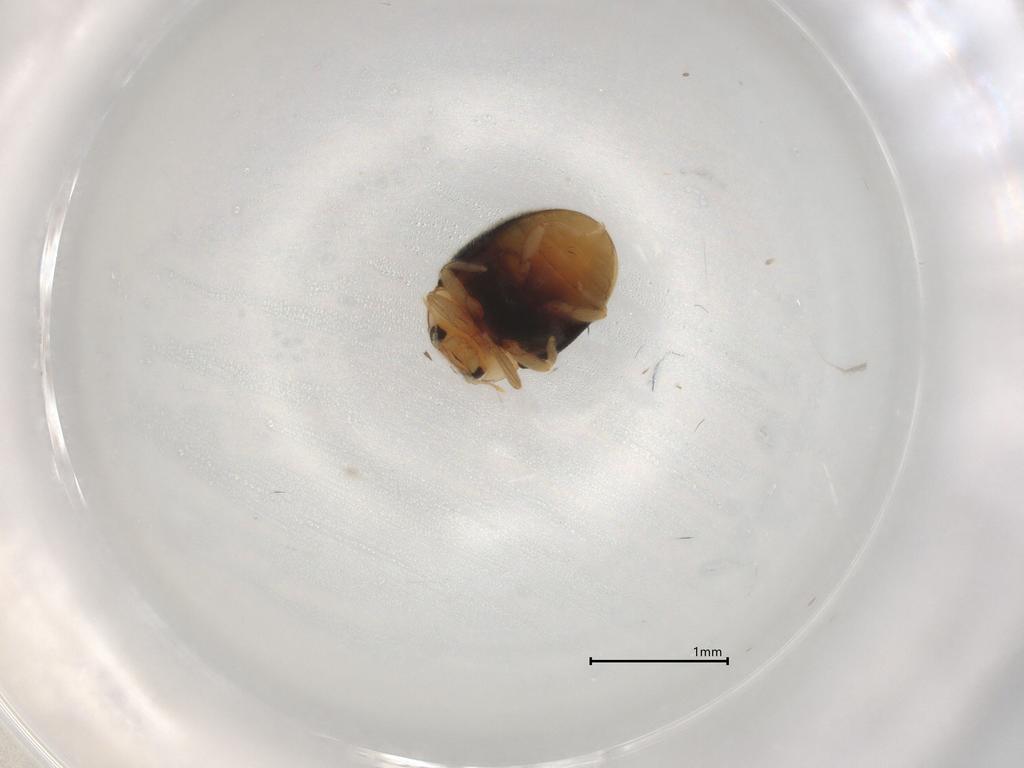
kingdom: Animalia
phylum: Arthropoda
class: Insecta
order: Coleoptera
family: Coccinellidae
